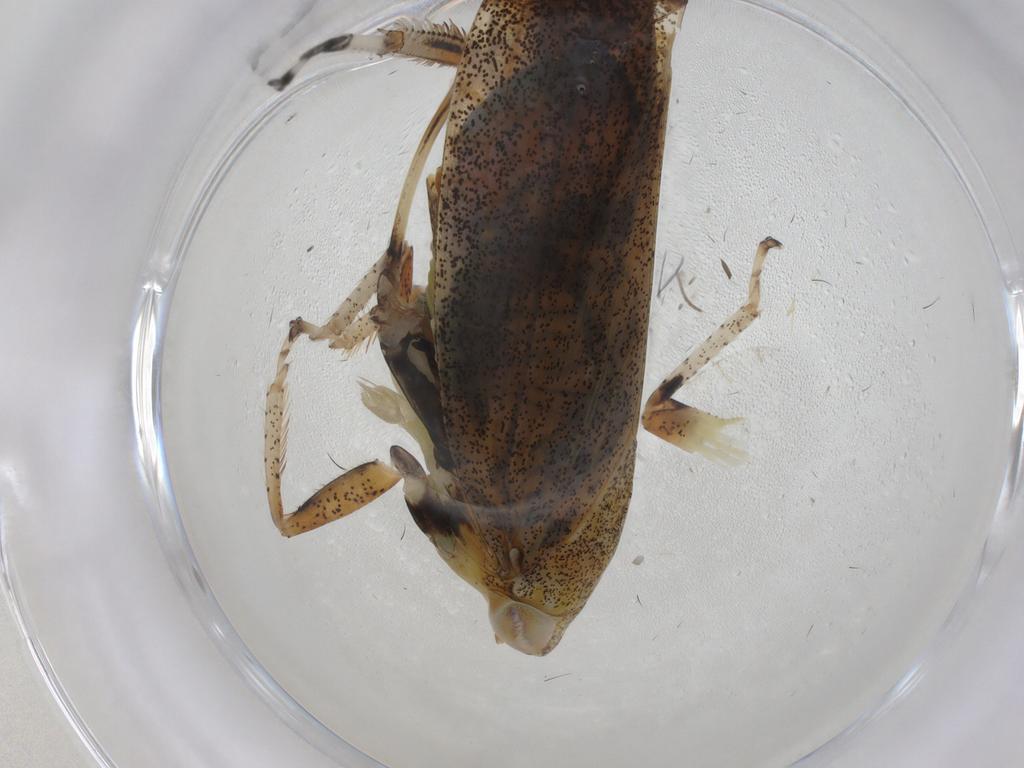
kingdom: Animalia
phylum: Arthropoda
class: Insecta
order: Hemiptera
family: Cicadellidae
